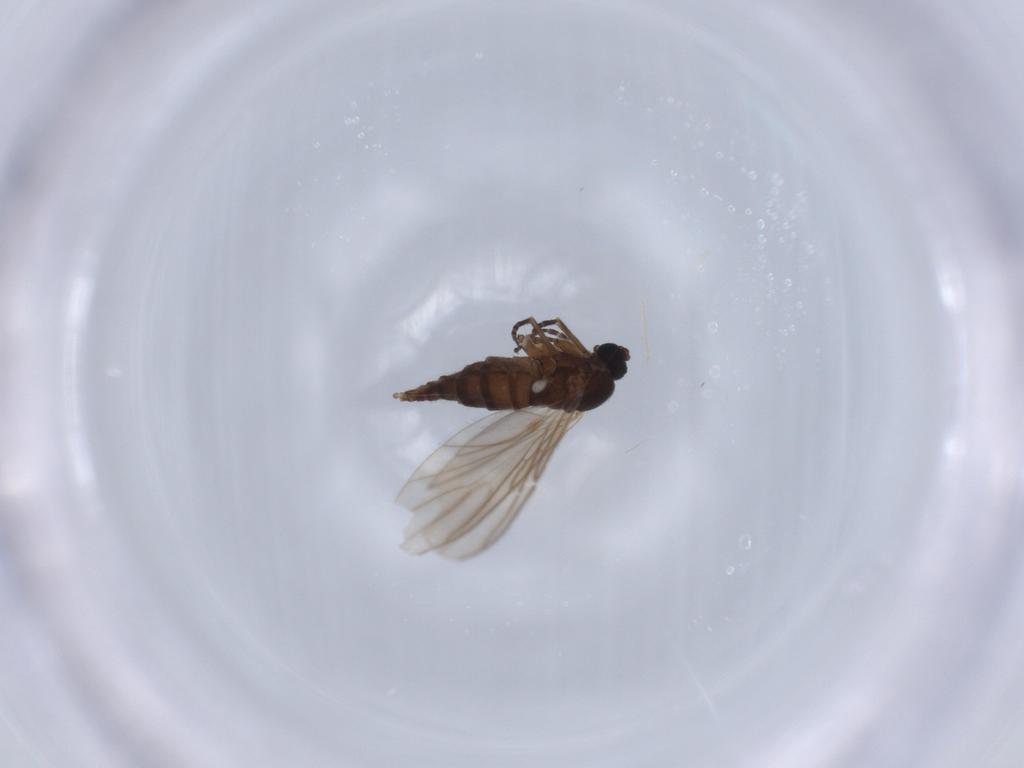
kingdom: Animalia
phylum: Arthropoda
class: Insecta
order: Diptera
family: Sciaridae
